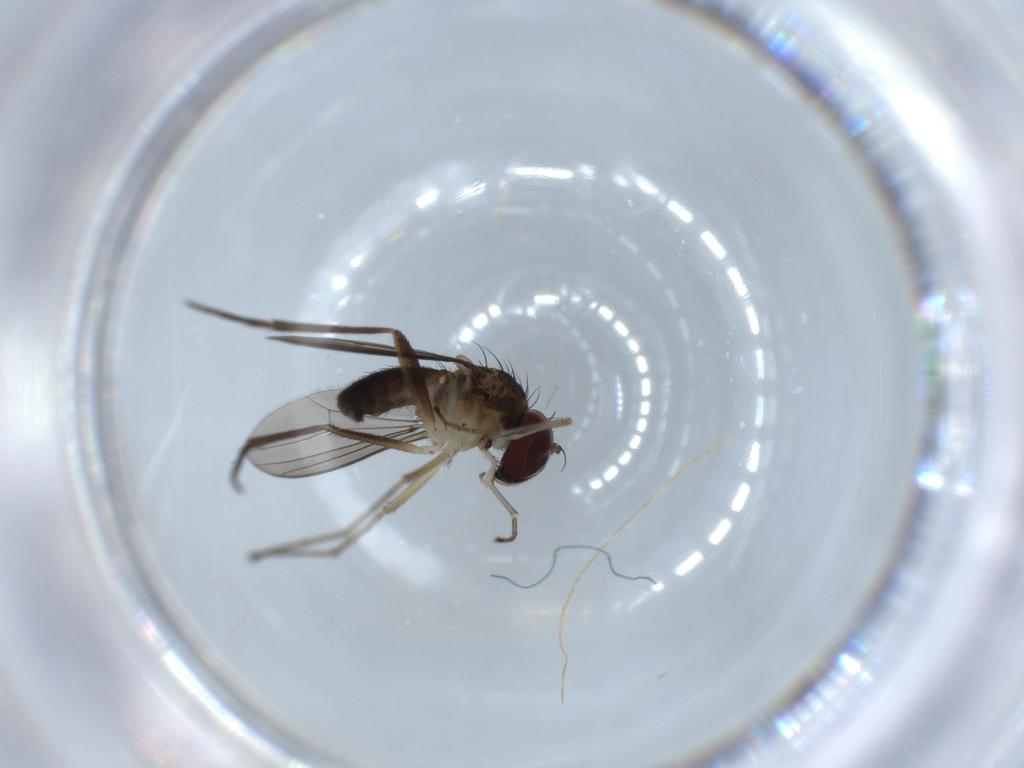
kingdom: Animalia
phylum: Arthropoda
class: Insecta
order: Diptera
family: Dolichopodidae
